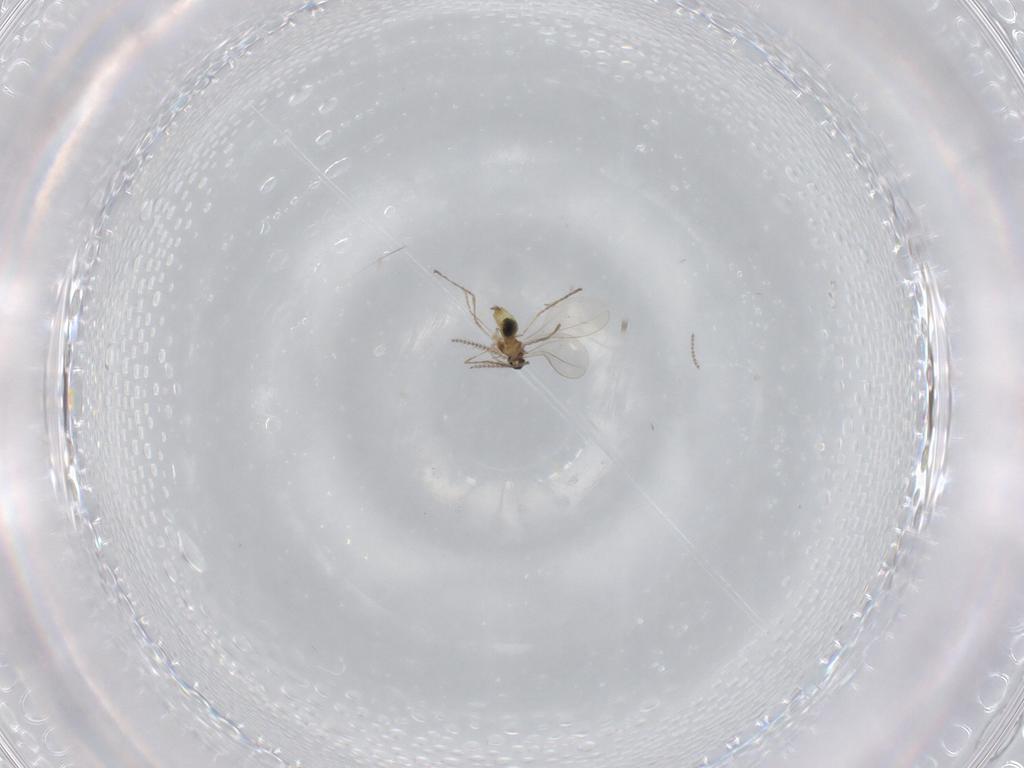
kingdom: Animalia
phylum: Arthropoda
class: Insecta
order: Diptera
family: Cecidomyiidae
